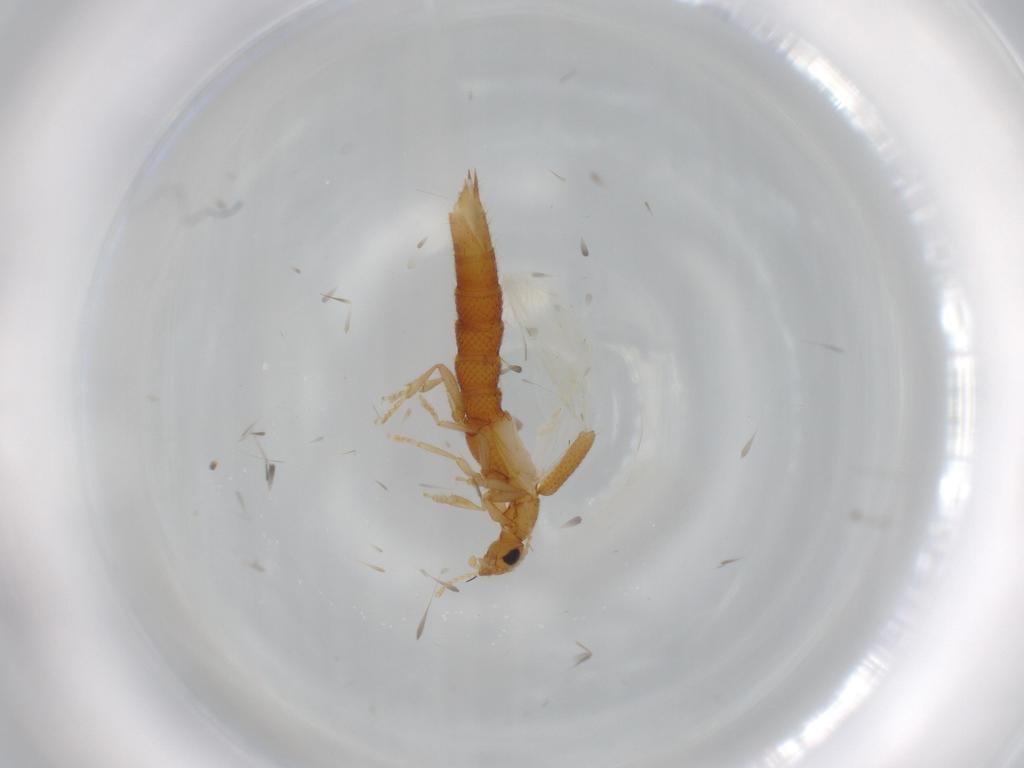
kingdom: Animalia
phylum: Arthropoda
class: Insecta
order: Coleoptera
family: Staphylinidae
